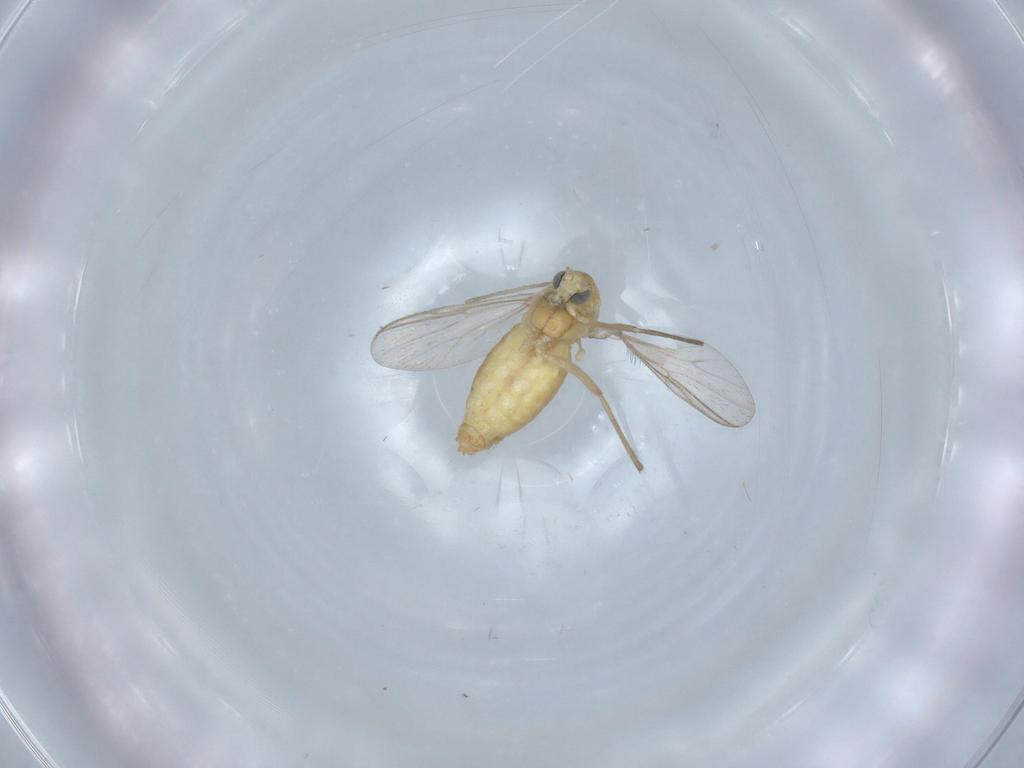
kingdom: Animalia
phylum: Arthropoda
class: Insecta
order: Diptera
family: Chironomidae
